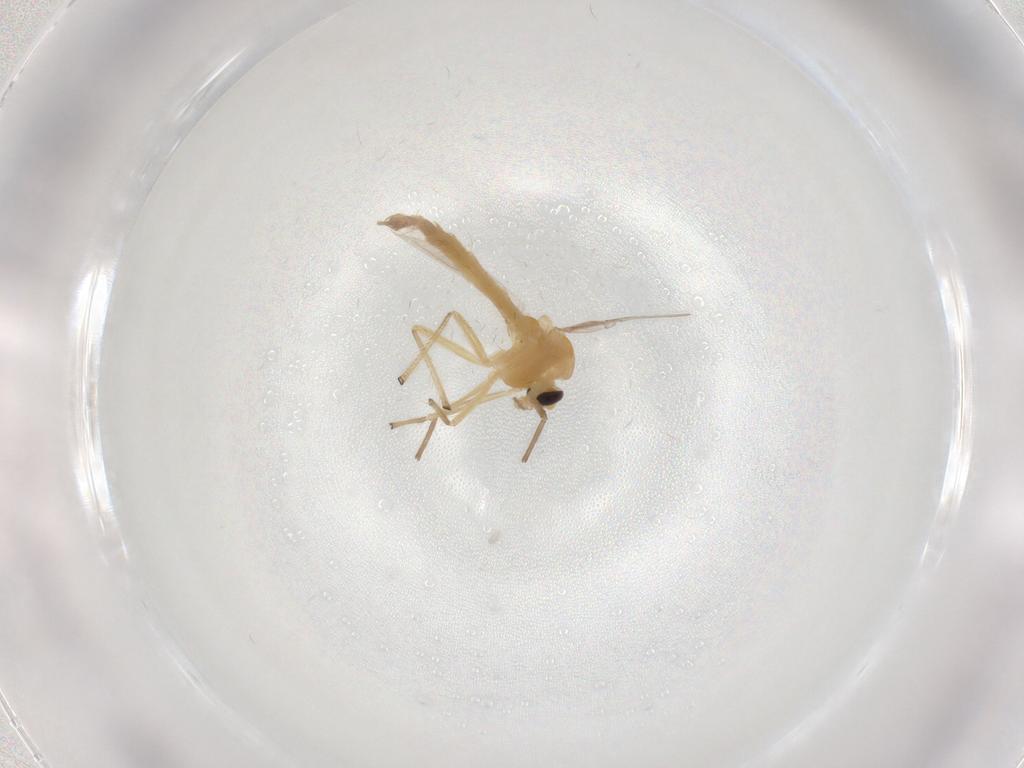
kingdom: Animalia
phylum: Arthropoda
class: Insecta
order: Diptera
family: Chironomidae
